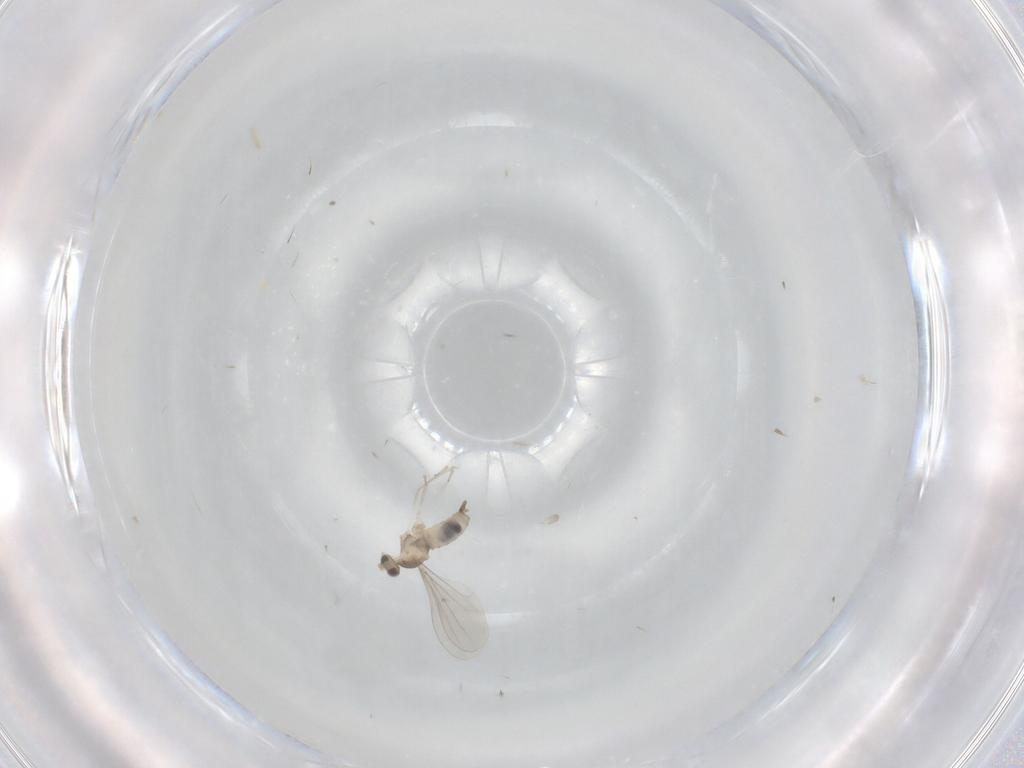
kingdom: Animalia
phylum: Arthropoda
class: Insecta
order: Diptera
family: Cecidomyiidae
